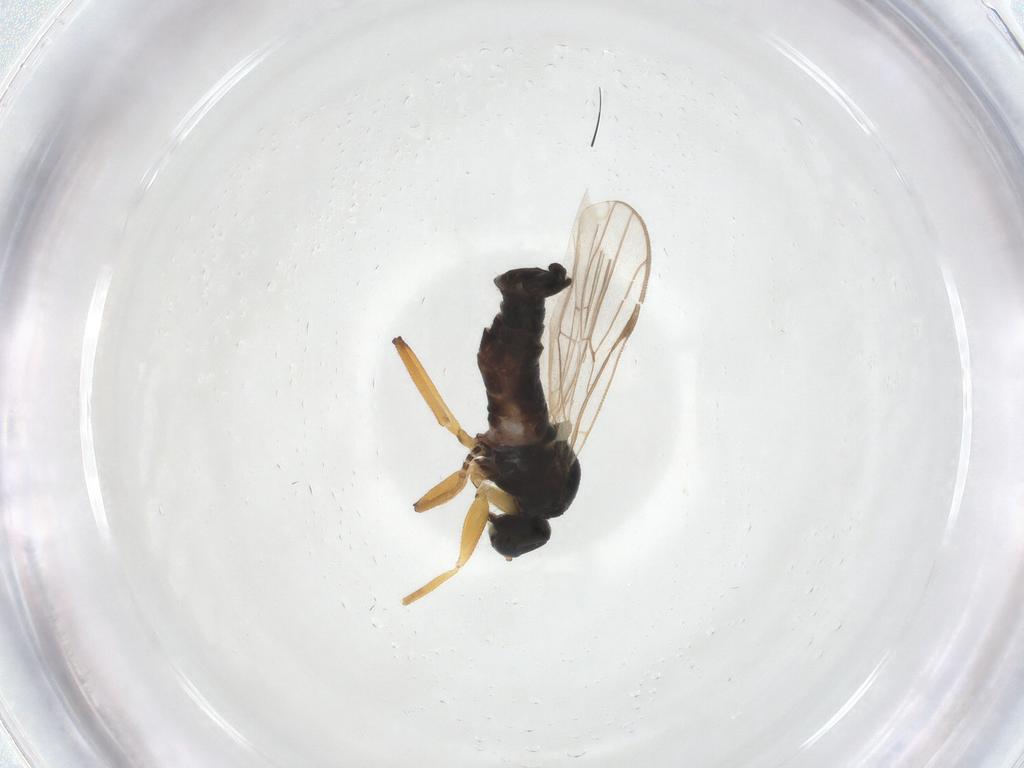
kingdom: Animalia
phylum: Arthropoda
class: Insecta
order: Diptera
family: Hybotidae
